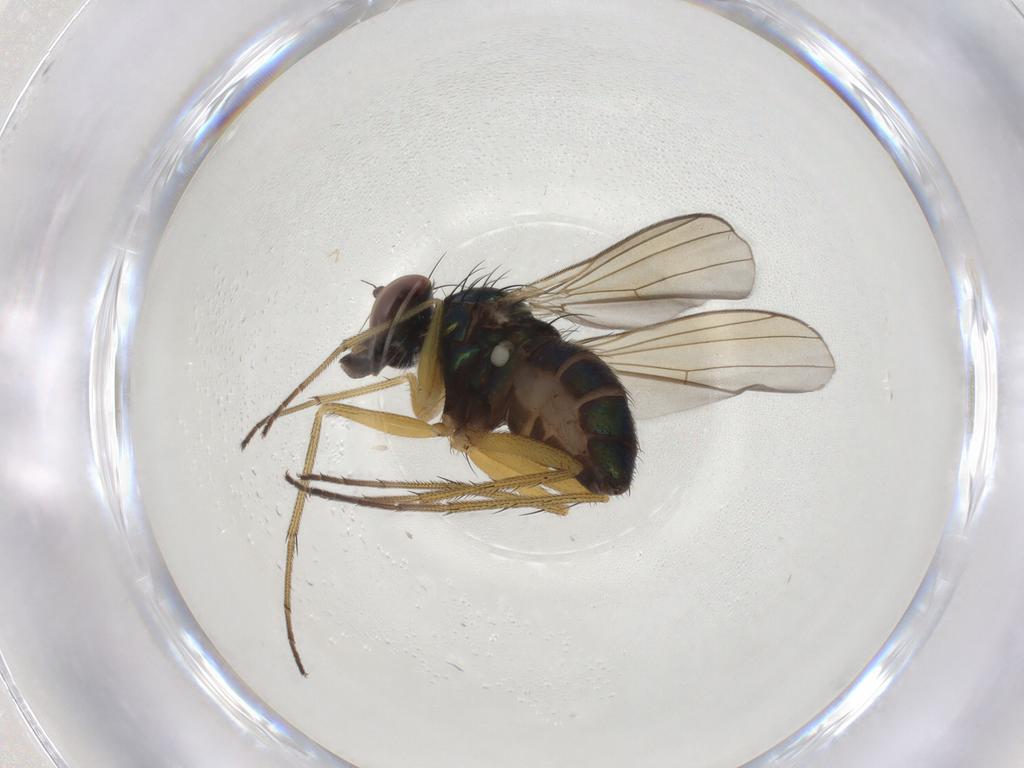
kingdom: Animalia
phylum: Arthropoda
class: Insecta
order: Diptera
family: Dolichopodidae
